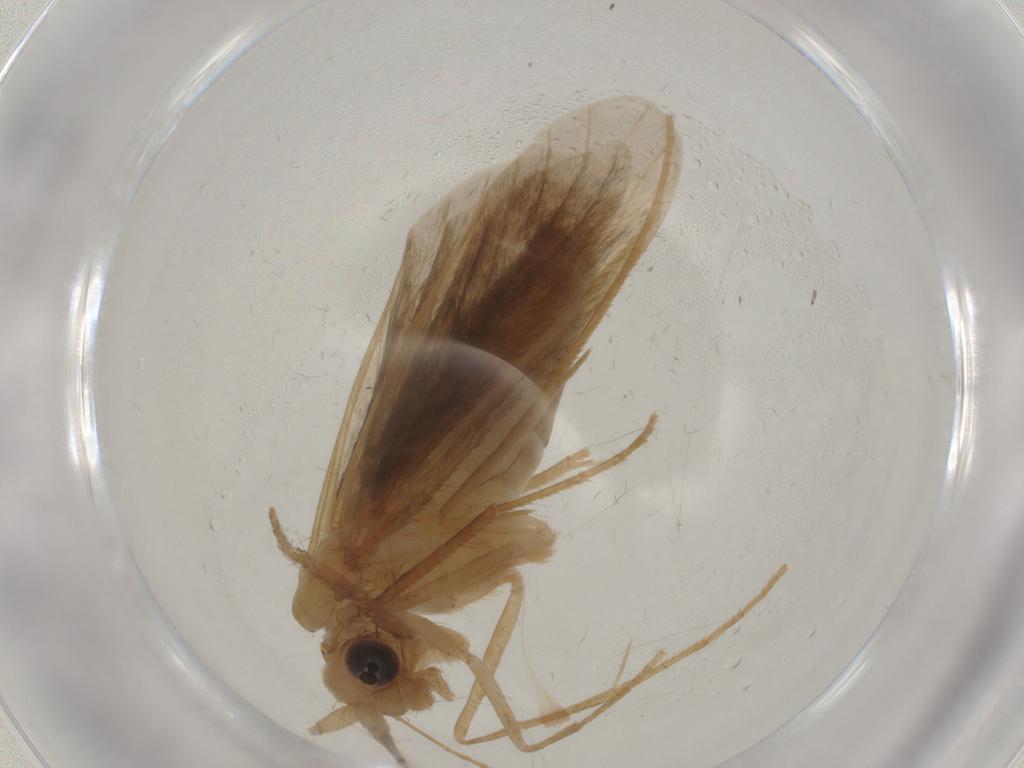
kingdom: Animalia
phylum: Arthropoda
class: Insecta
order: Trichoptera
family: Leptoceridae
